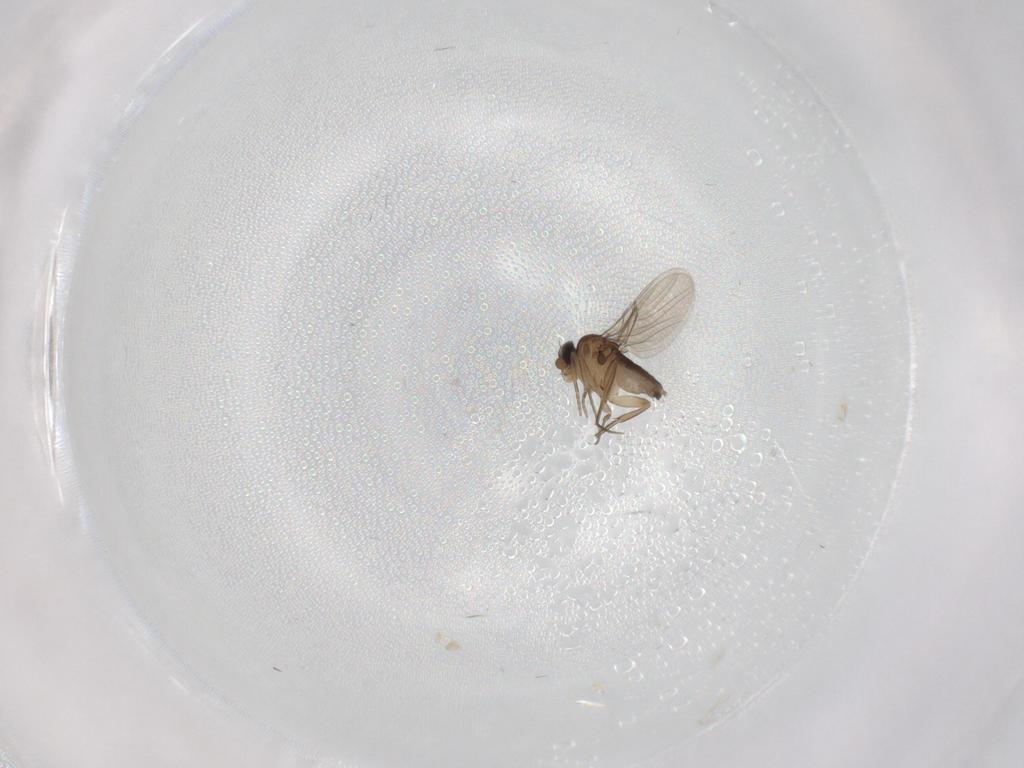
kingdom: Animalia
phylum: Arthropoda
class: Insecta
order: Diptera
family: Phoridae
